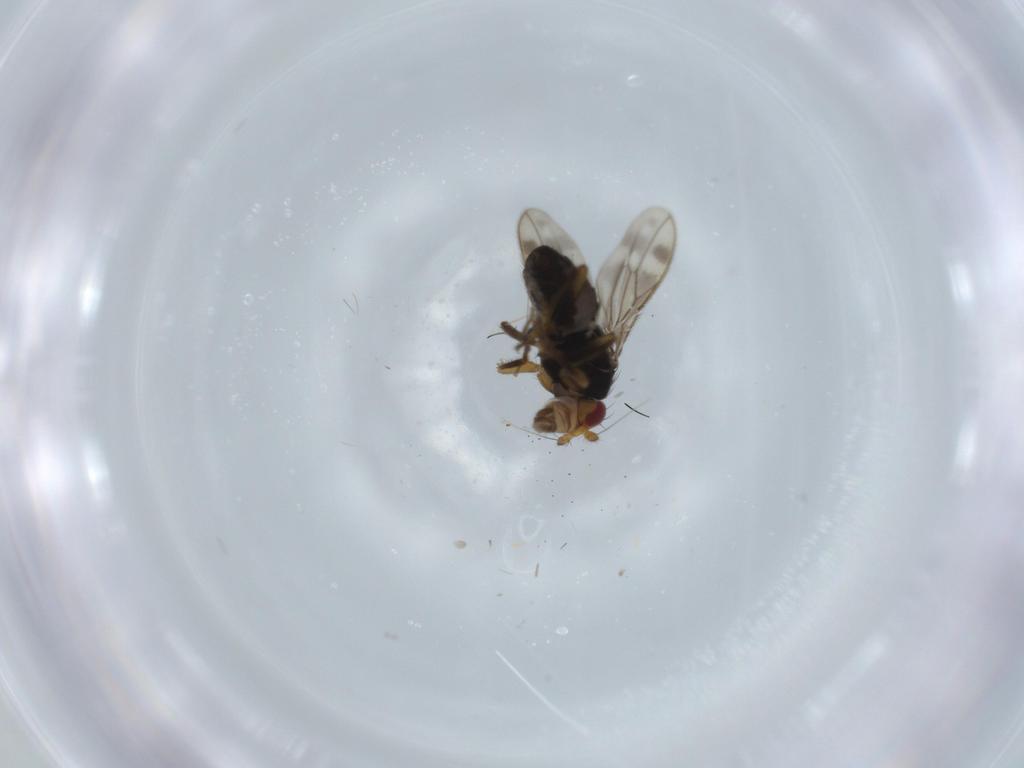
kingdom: Animalia
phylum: Arthropoda
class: Insecta
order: Diptera
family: Sphaeroceridae
